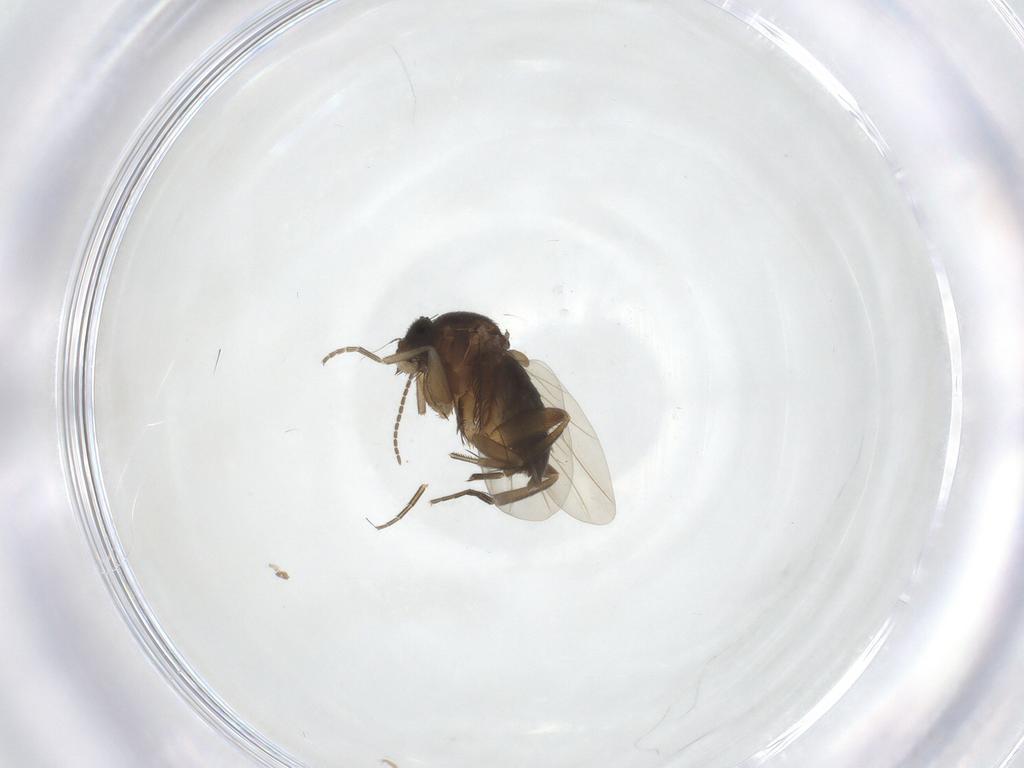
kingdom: Animalia
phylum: Arthropoda
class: Insecta
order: Diptera
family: Phoridae
